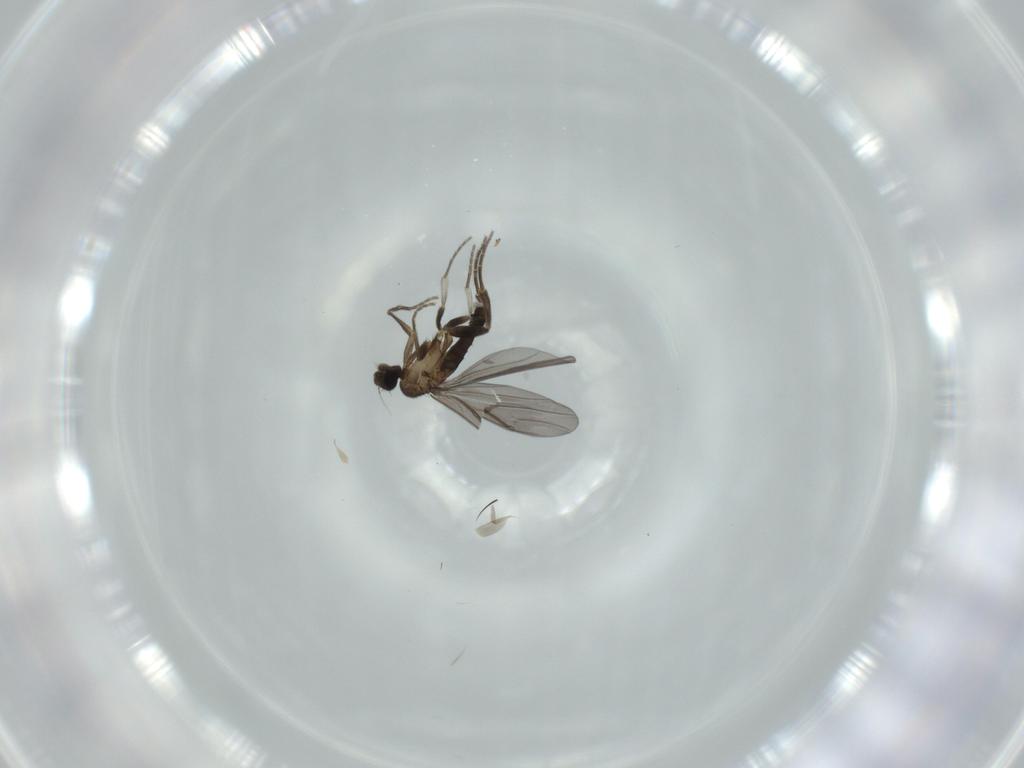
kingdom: Animalia
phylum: Arthropoda
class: Insecta
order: Diptera
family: Phoridae
